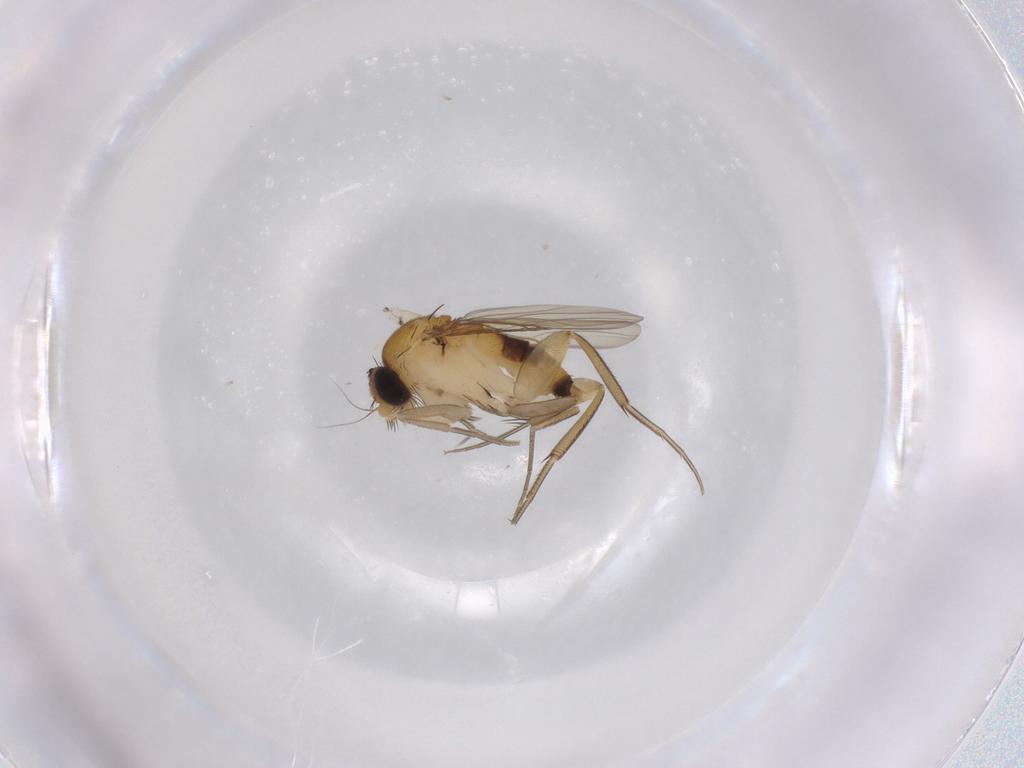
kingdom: Animalia
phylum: Arthropoda
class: Insecta
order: Diptera
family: Phoridae
